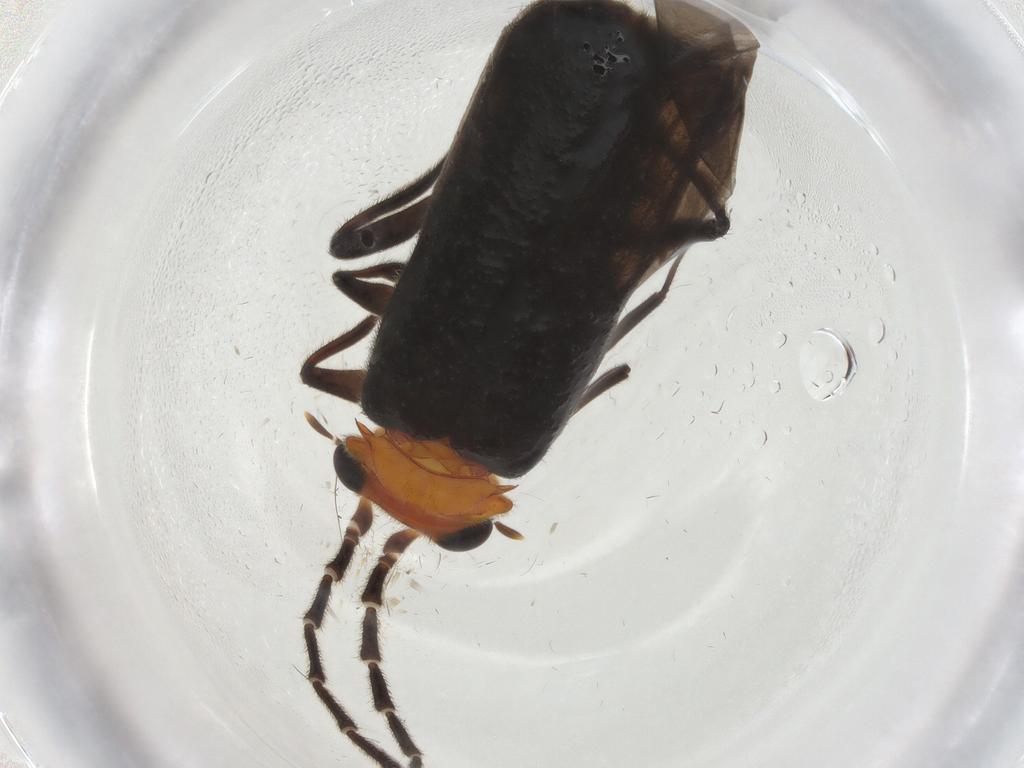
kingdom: Animalia
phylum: Arthropoda
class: Insecta
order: Coleoptera
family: Cantharidae
